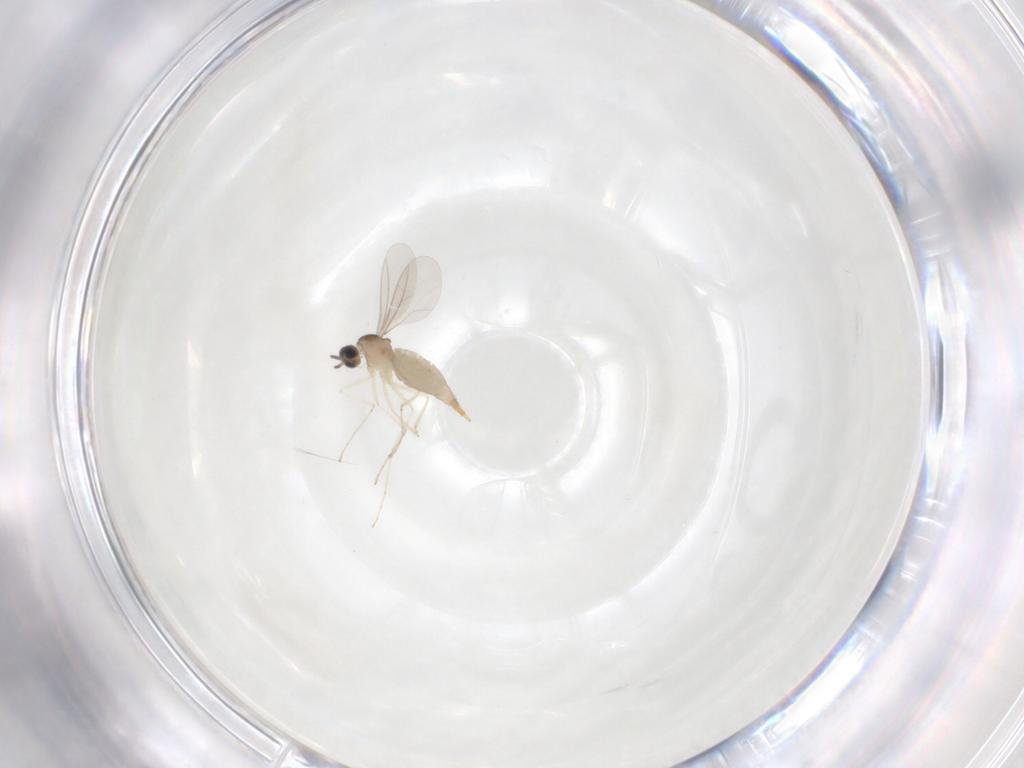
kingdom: Animalia
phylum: Arthropoda
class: Insecta
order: Diptera
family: Cecidomyiidae
